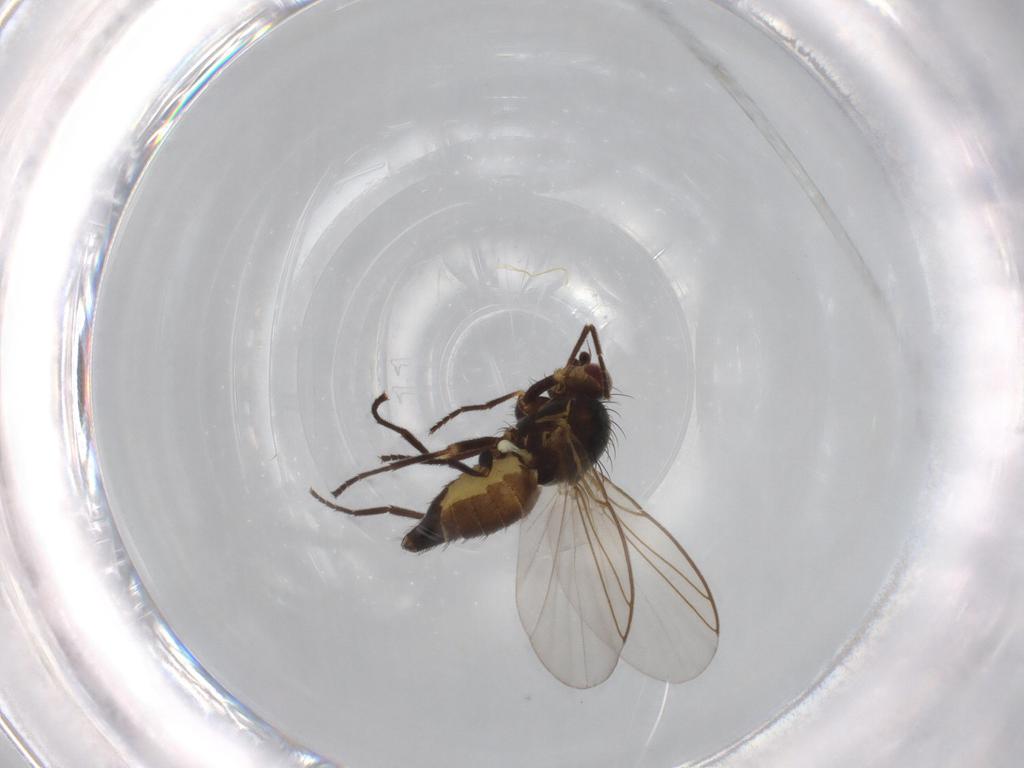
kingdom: Animalia
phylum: Arthropoda
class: Insecta
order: Diptera
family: Agromyzidae
